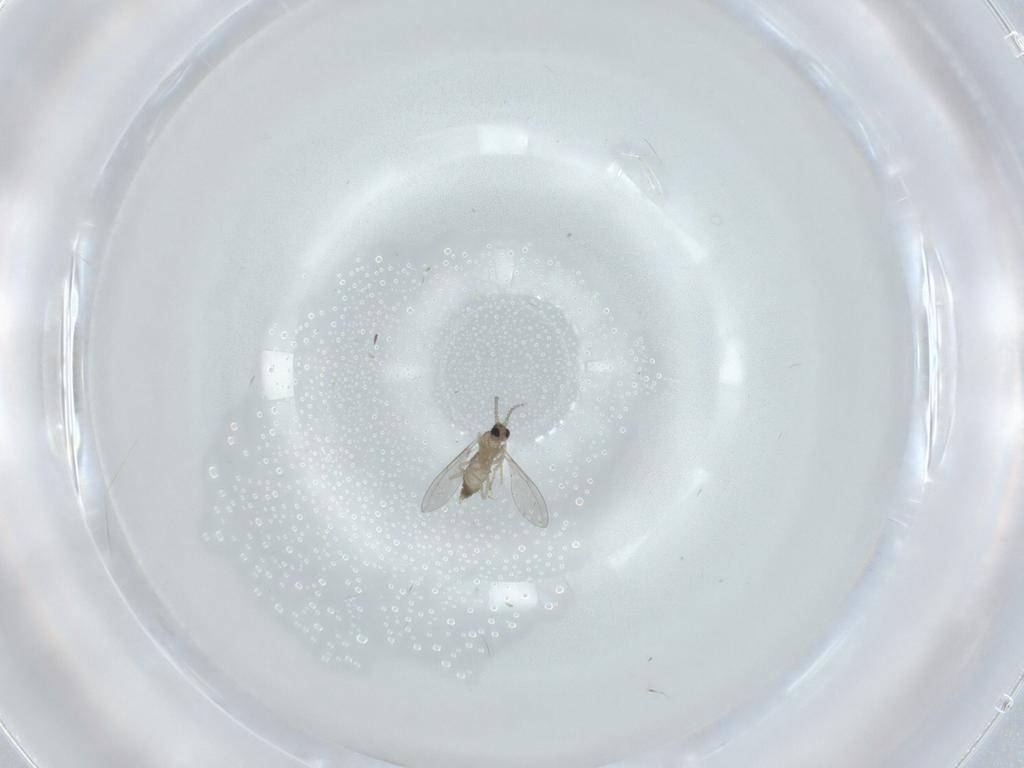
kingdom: Animalia
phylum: Arthropoda
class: Insecta
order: Diptera
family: Cecidomyiidae
